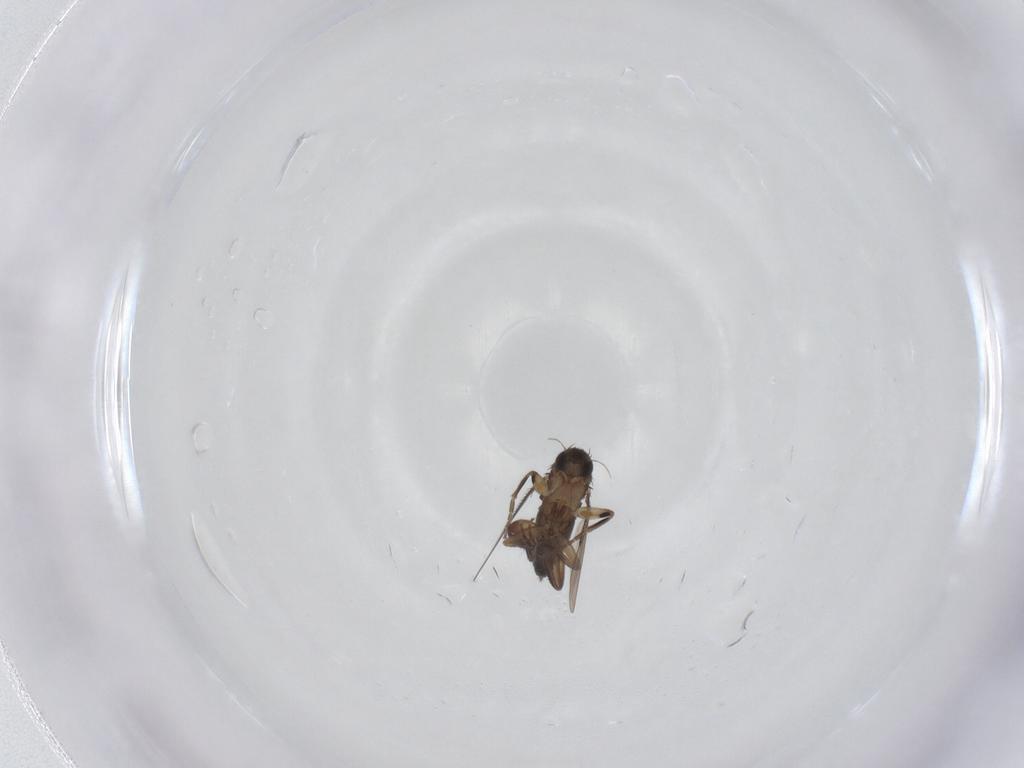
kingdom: Animalia
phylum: Arthropoda
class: Insecta
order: Diptera
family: Phoridae
